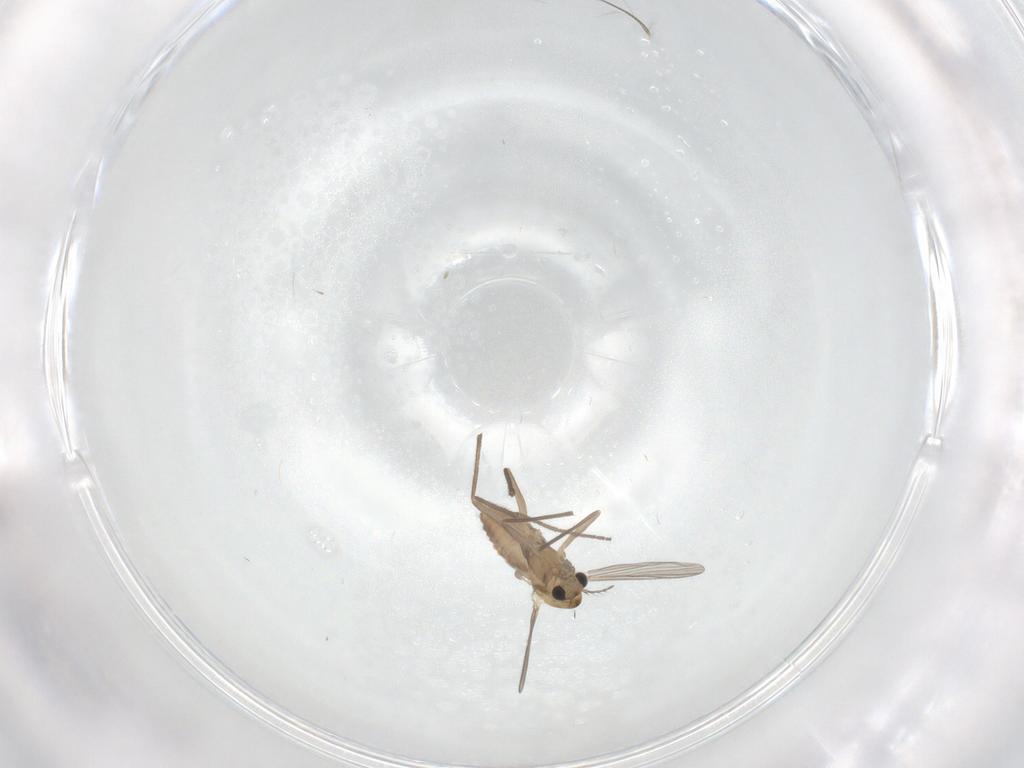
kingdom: Animalia
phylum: Arthropoda
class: Insecta
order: Diptera
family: Chironomidae
